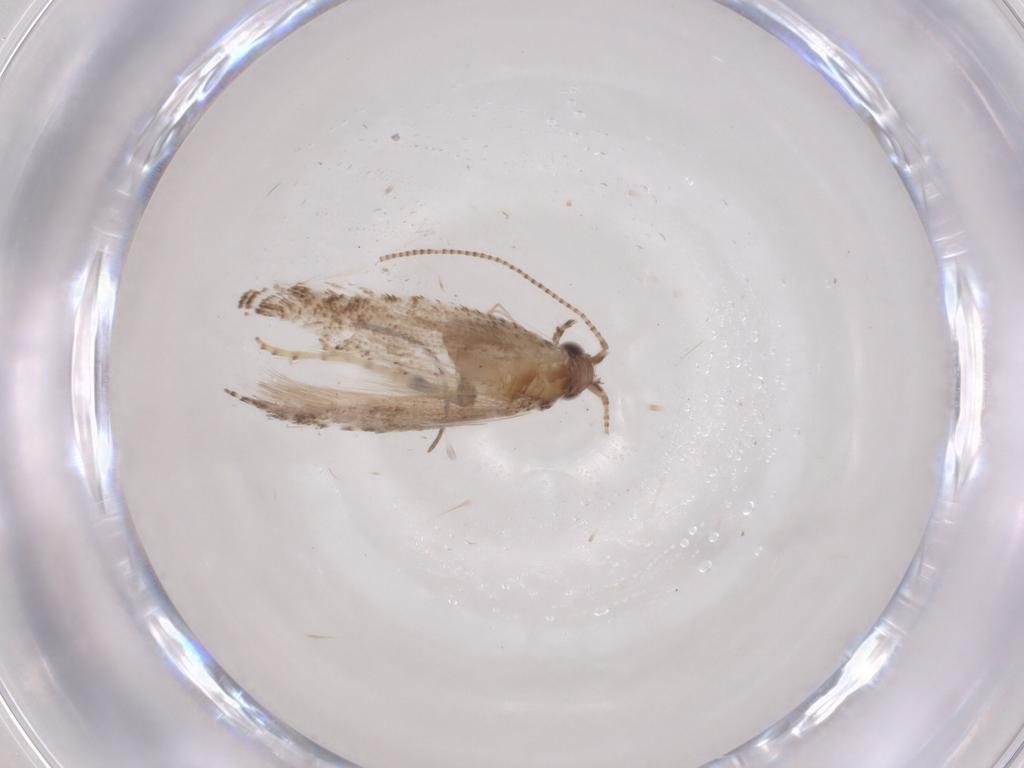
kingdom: Animalia
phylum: Arthropoda
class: Insecta
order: Lepidoptera
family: Gracillariidae
